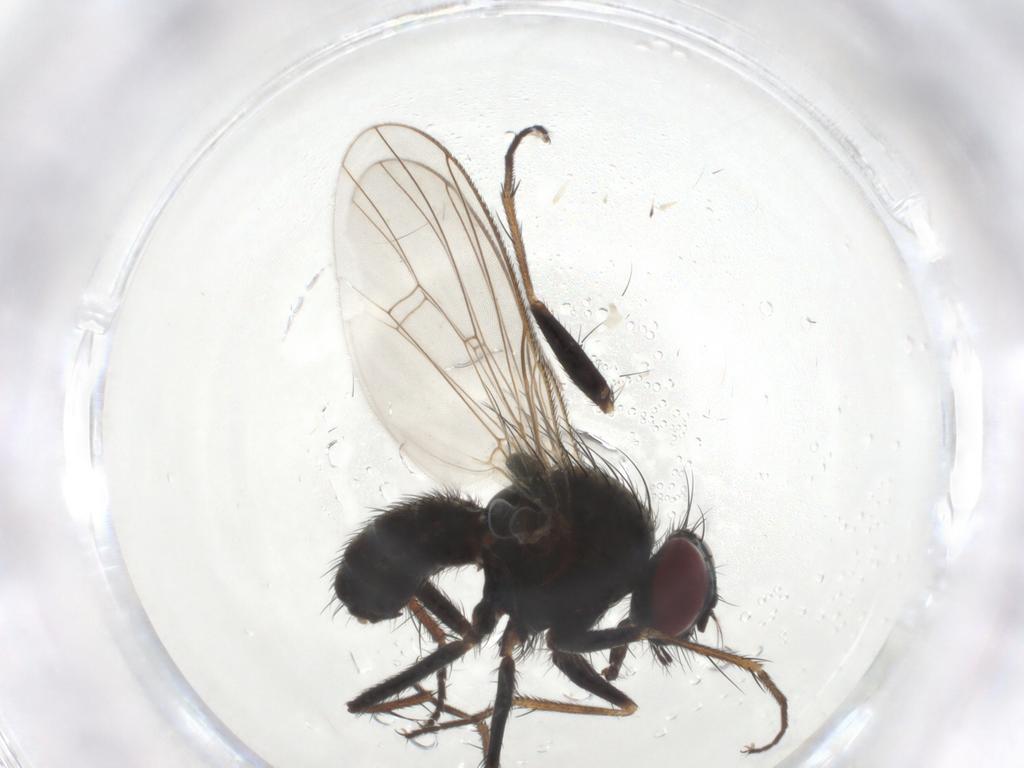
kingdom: Animalia
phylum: Arthropoda
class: Insecta
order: Diptera
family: Muscidae
